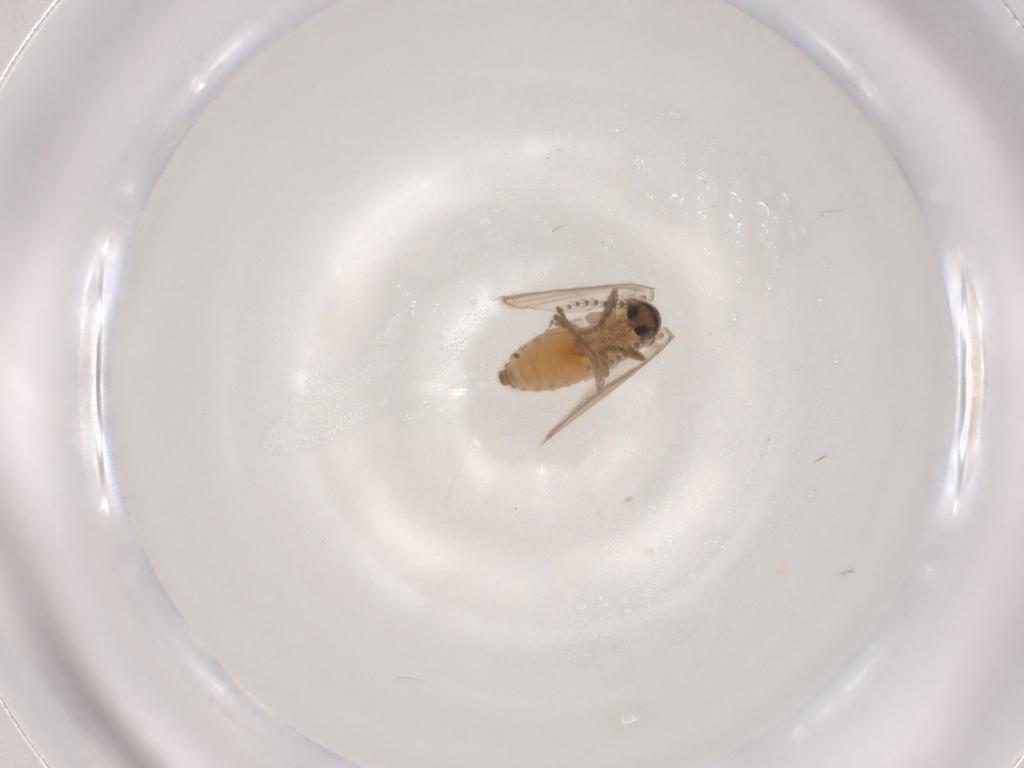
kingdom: Animalia
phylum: Arthropoda
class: Insecta
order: Diptera
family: Psychodidae
